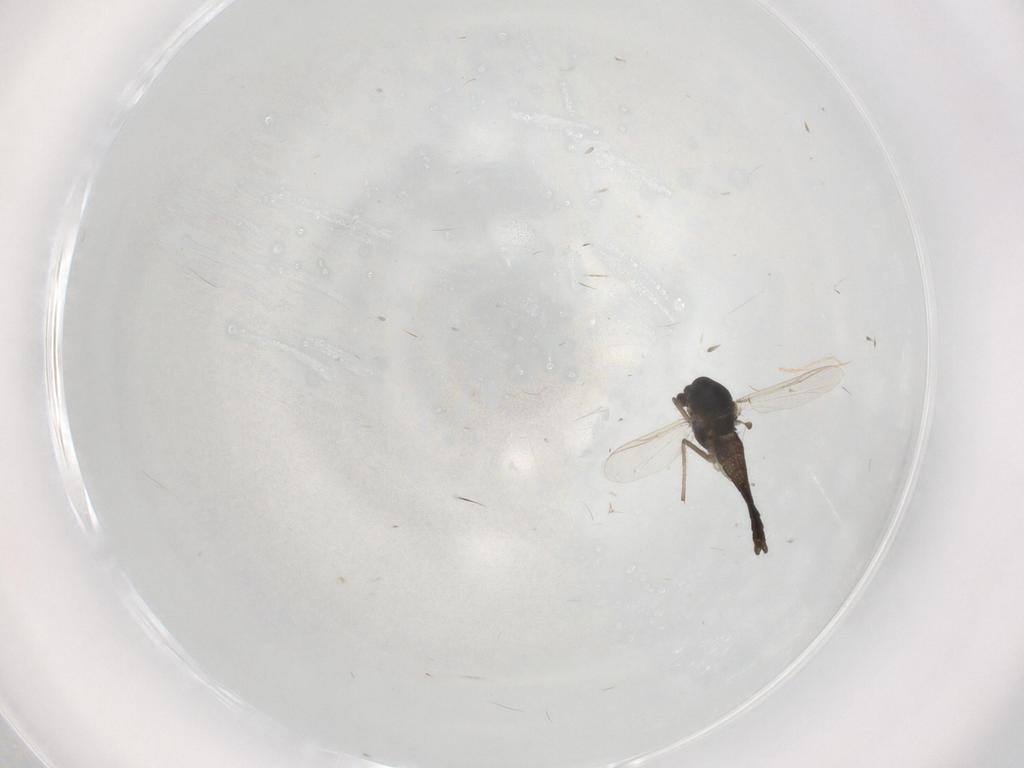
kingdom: Animalia
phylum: Arthropoda
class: Insecta
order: Diptera
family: Chironomidae
